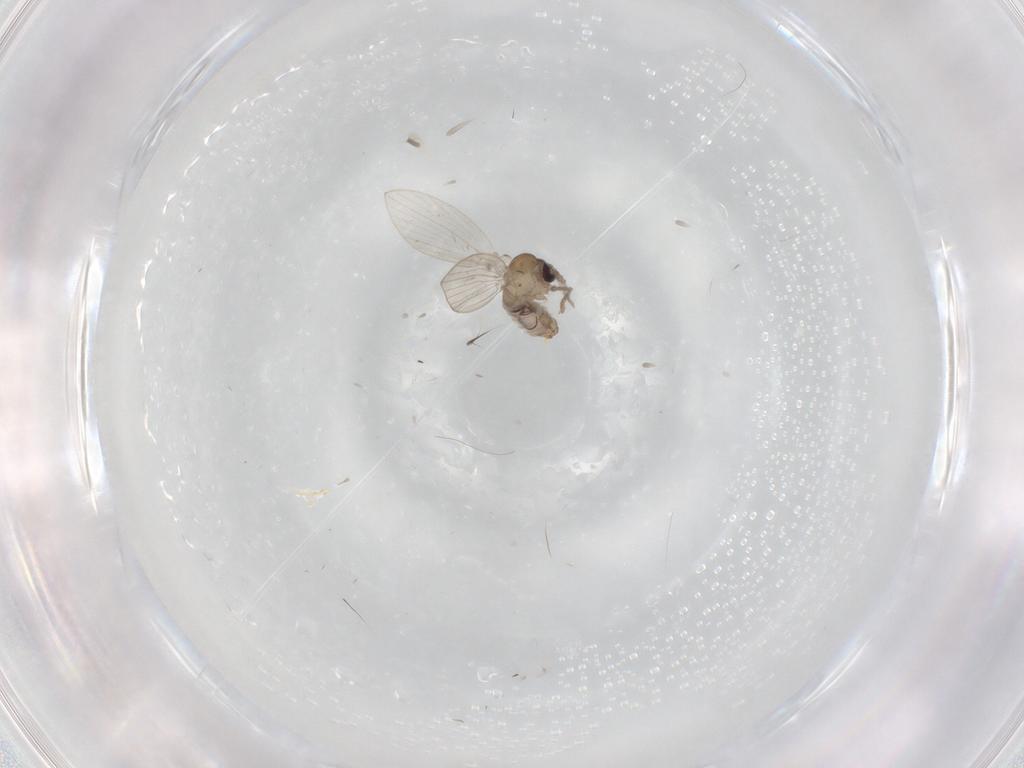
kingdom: Animalia
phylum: Arthropoda
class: Insecta
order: Diptera
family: Psychodidae
